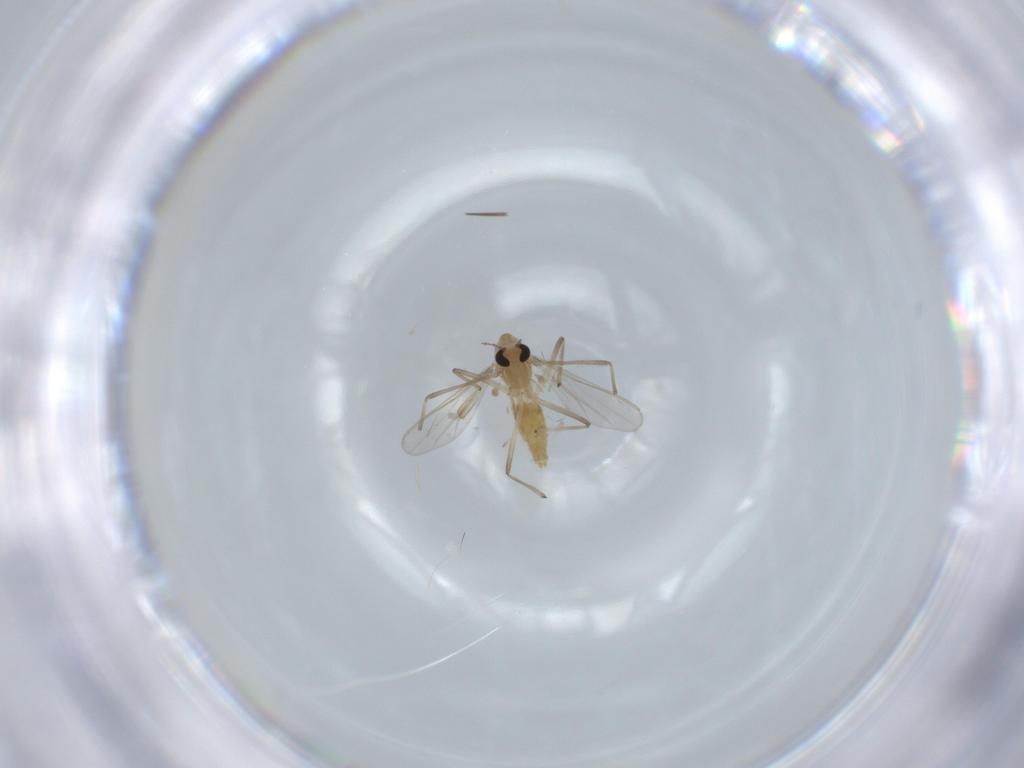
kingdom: Animalia
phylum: Arthropoda
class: Insecta
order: Diptera
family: Chironomidae
